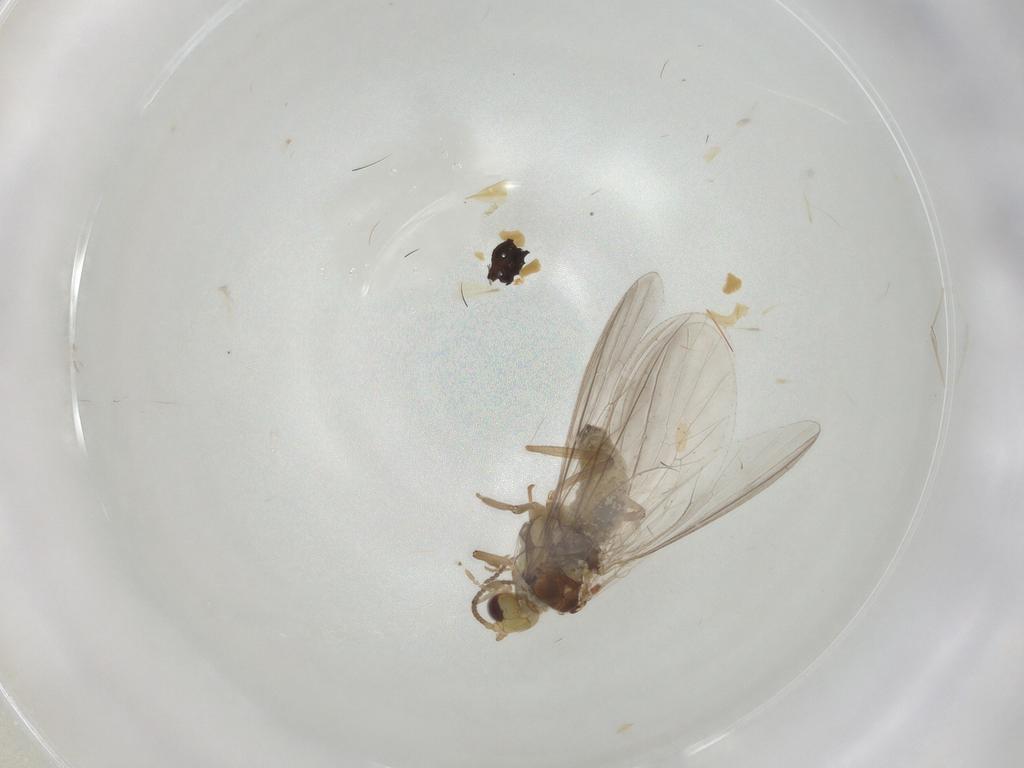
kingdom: Animalia
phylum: Arthropoda
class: Insecta
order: Neuroptera
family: Coniopterygidae
